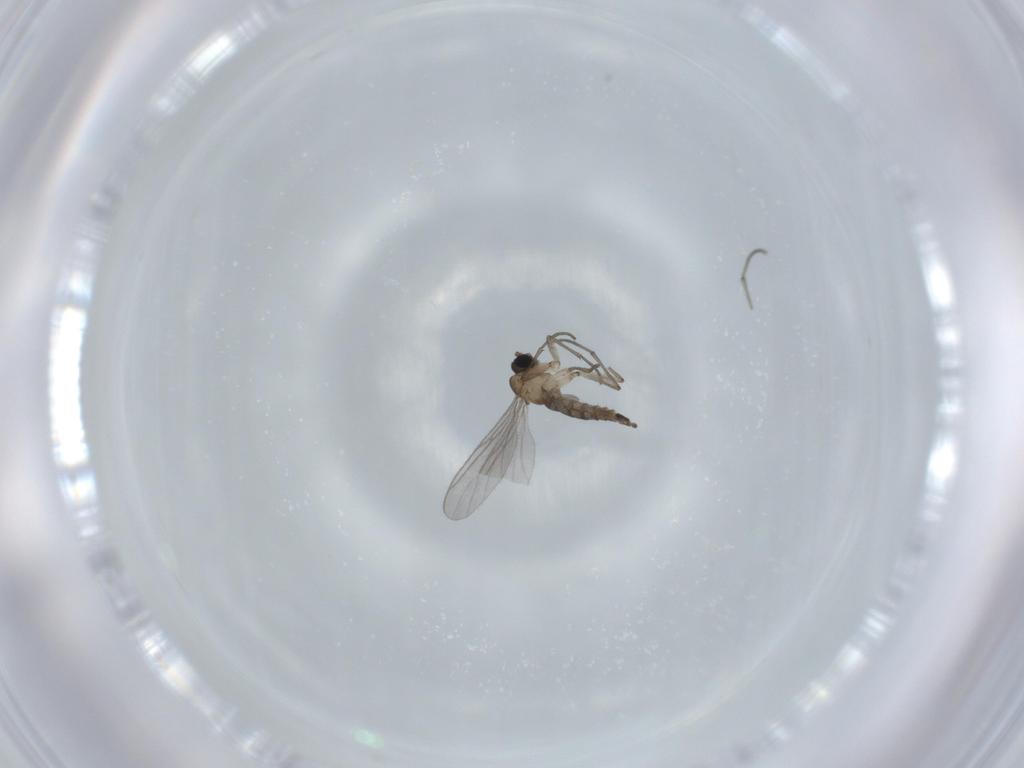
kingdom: Animalia
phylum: Arthropoda
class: Insecta
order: Diptera
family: Sciaridae
